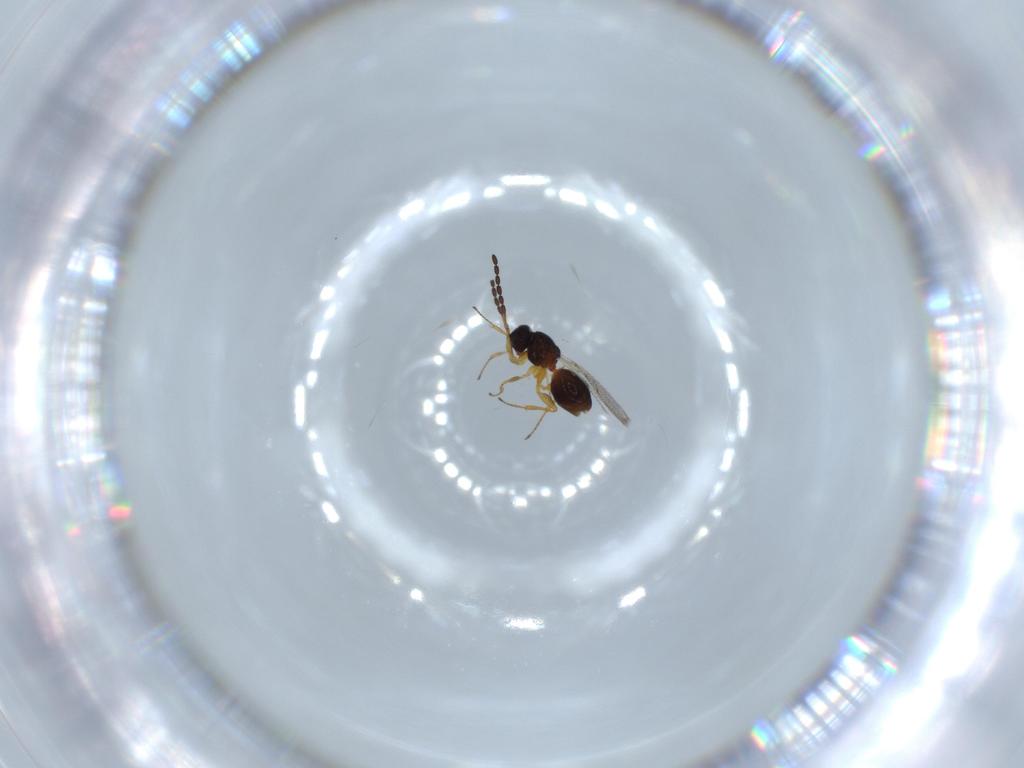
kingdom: Animalia
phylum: Arthropoda
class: Insecta
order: Hymenoptera
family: Figitidae
